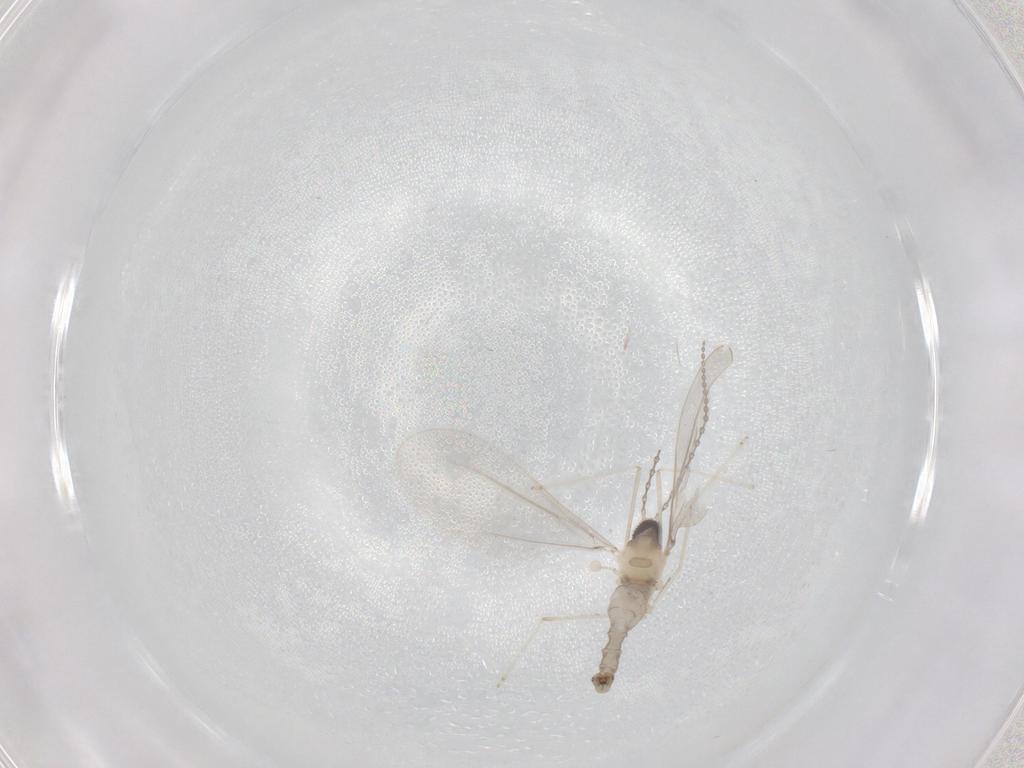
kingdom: Animalia
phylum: Arthropoda
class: Insecta
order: Diptera
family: Cecidomyiidae
